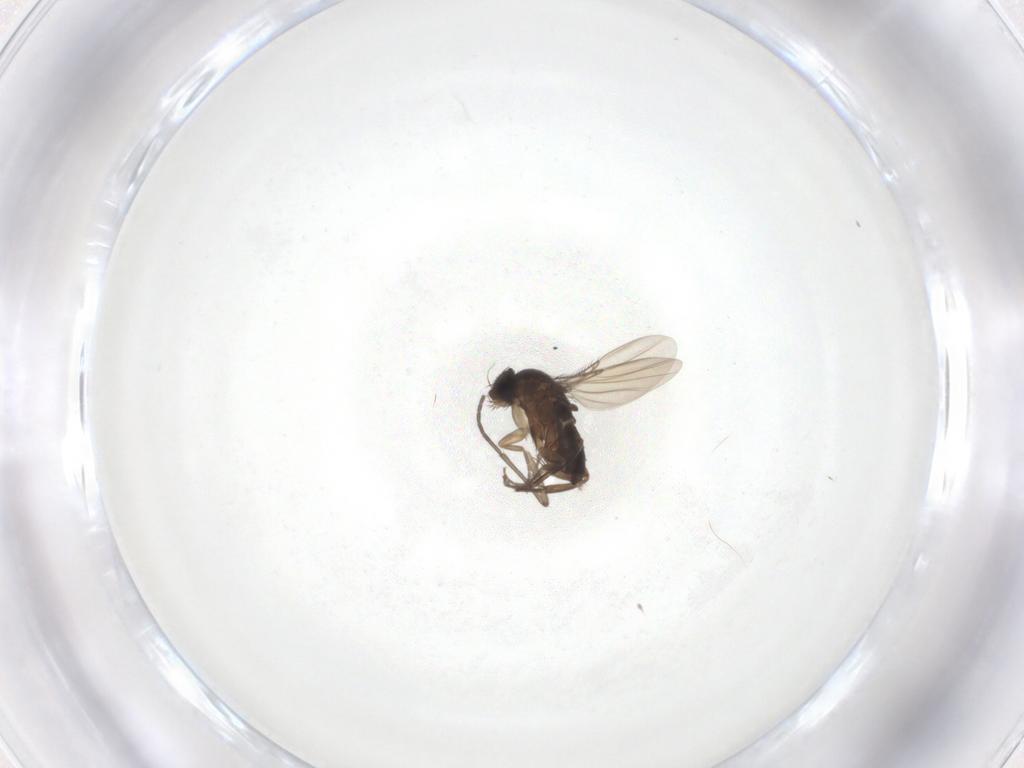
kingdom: Animalia
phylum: Arthropoda
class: Insecta
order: Diptera
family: Phoridae
